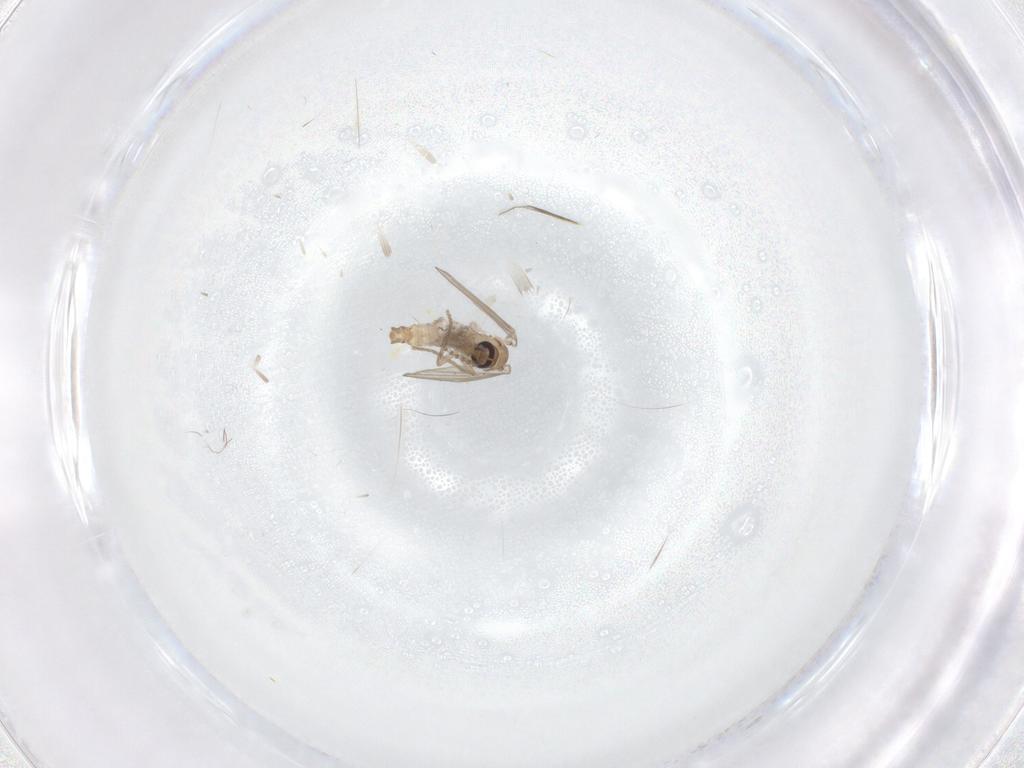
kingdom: Animalia
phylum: Arthropoda
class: Insecta
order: Diptera
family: Psychodidae
